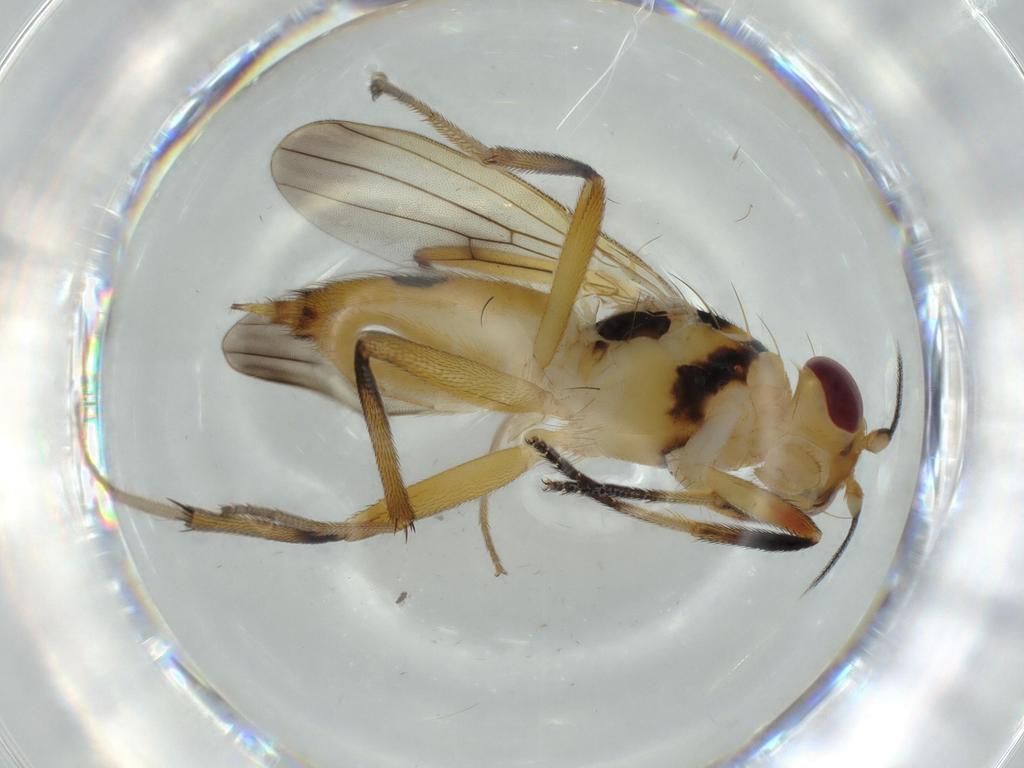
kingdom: Animalia
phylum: Arthropoda
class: Insecta
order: Diptera
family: Clusiidae
